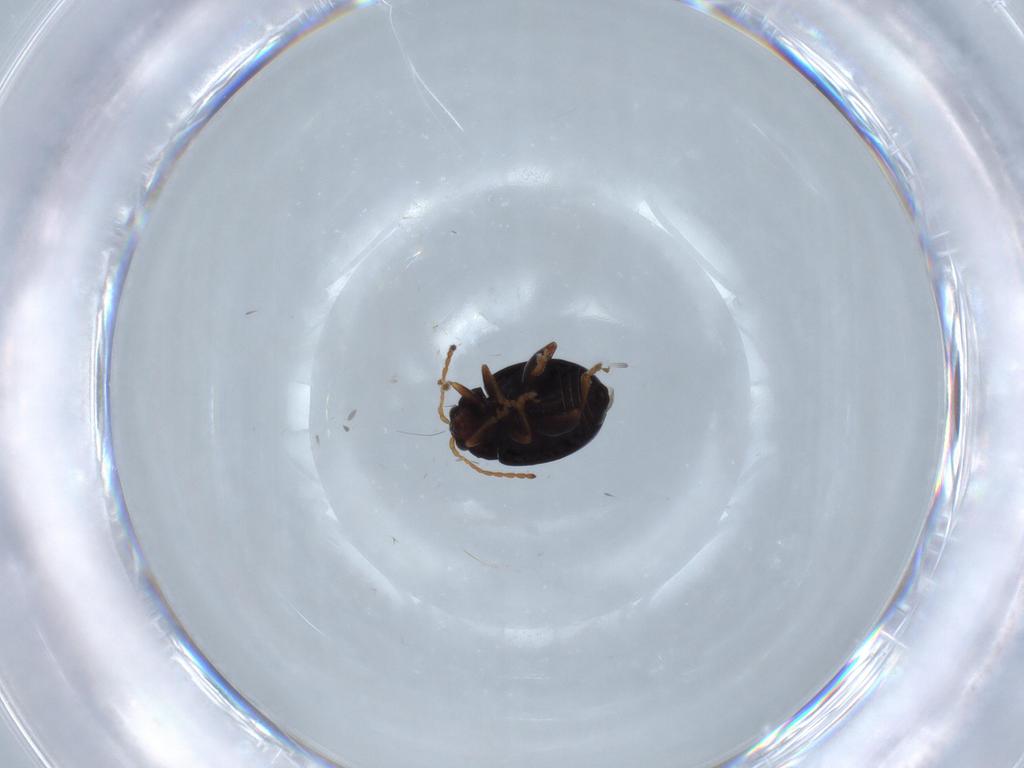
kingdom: Animalia
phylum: Arthropoda
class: Insecta
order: Coleoptera
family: Chrysomelidae
